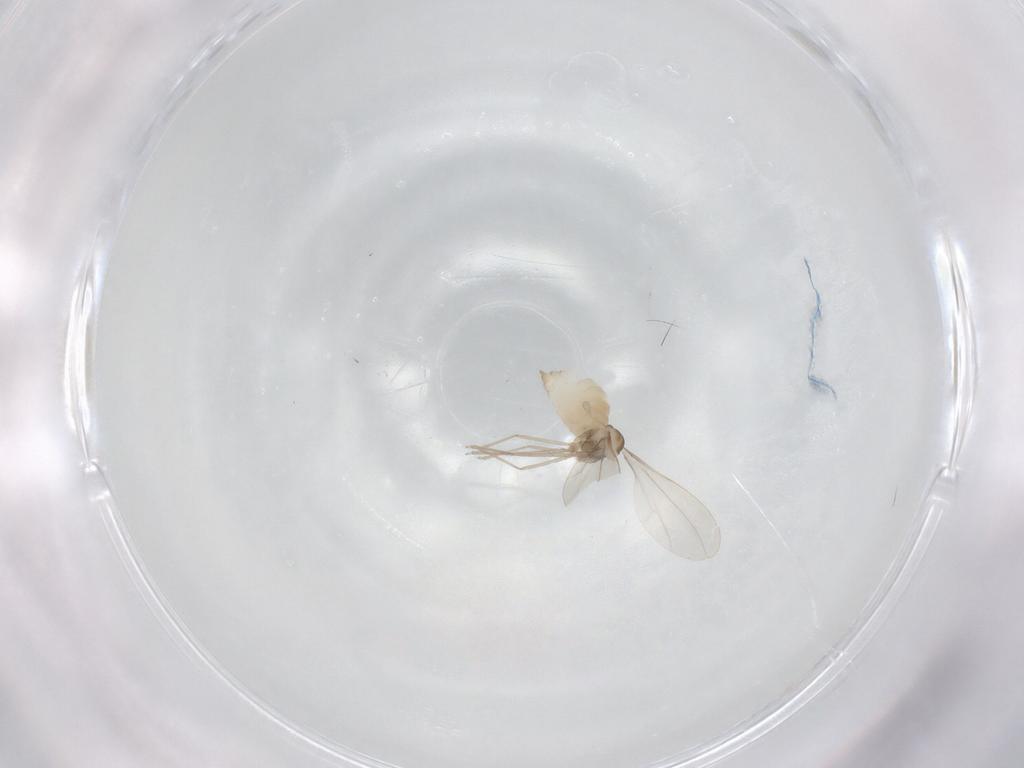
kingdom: Animalia
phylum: Arthropoda
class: Insecta
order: Diptera
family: Cecidomyiidae
